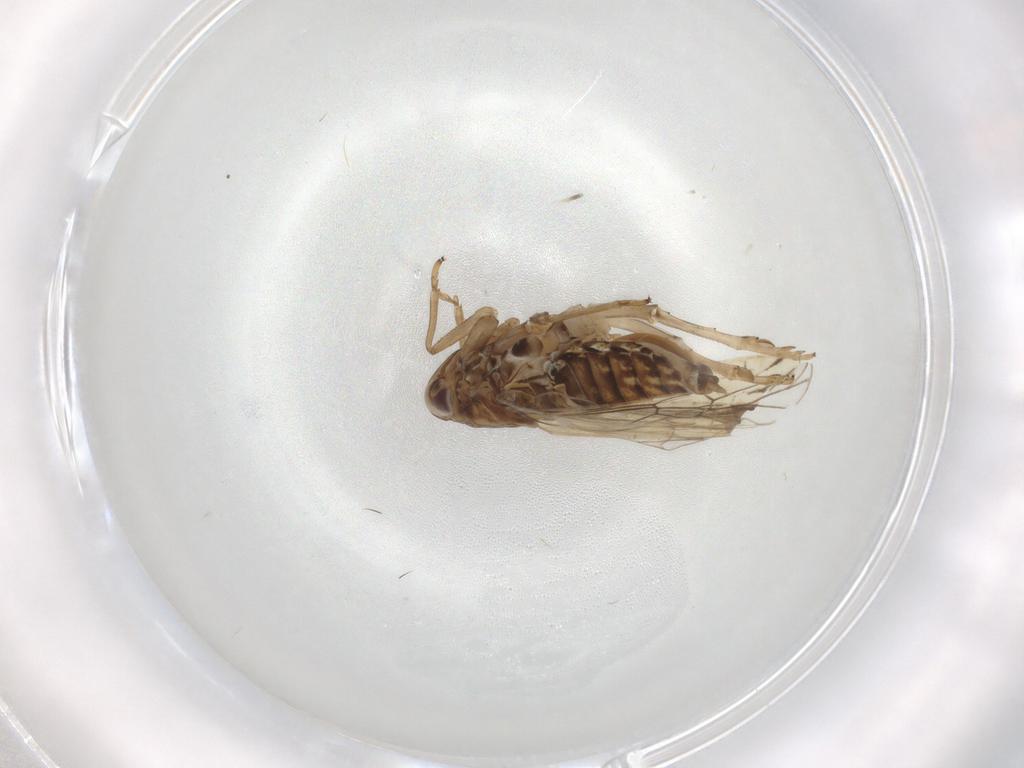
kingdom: Animalia
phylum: Arthropoda
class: Insecta
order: Hemiptera
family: Delphacidae
